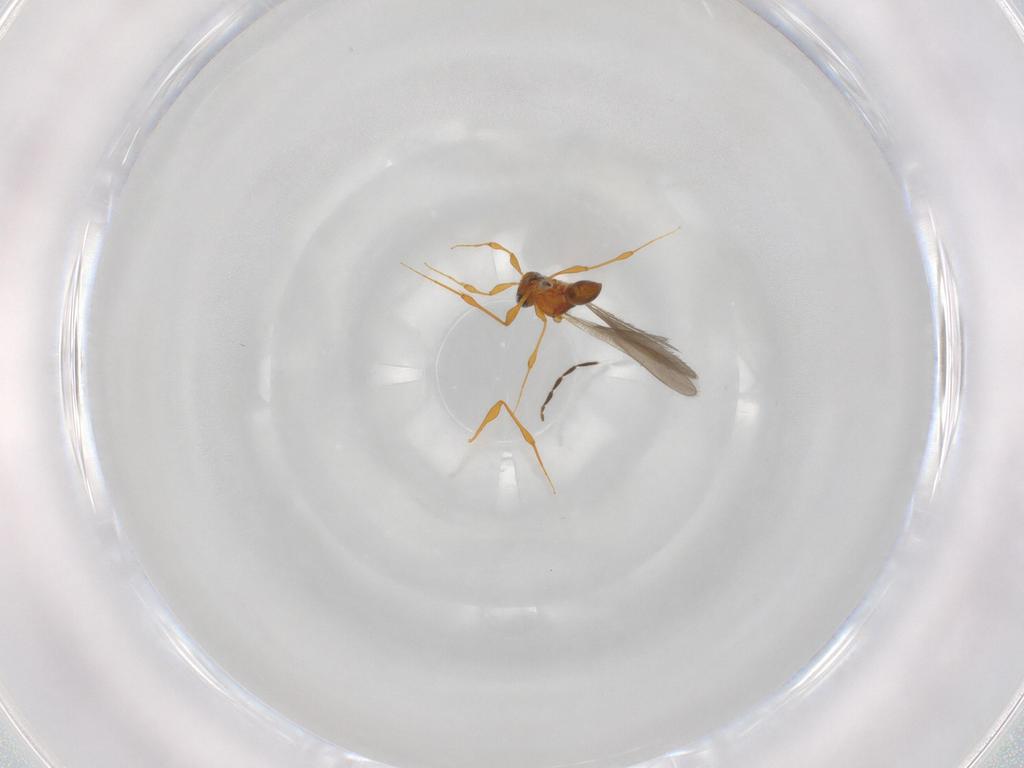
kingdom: Animalia
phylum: Arthropoda
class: Insecta
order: Hymenoptera
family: Platygastridae
